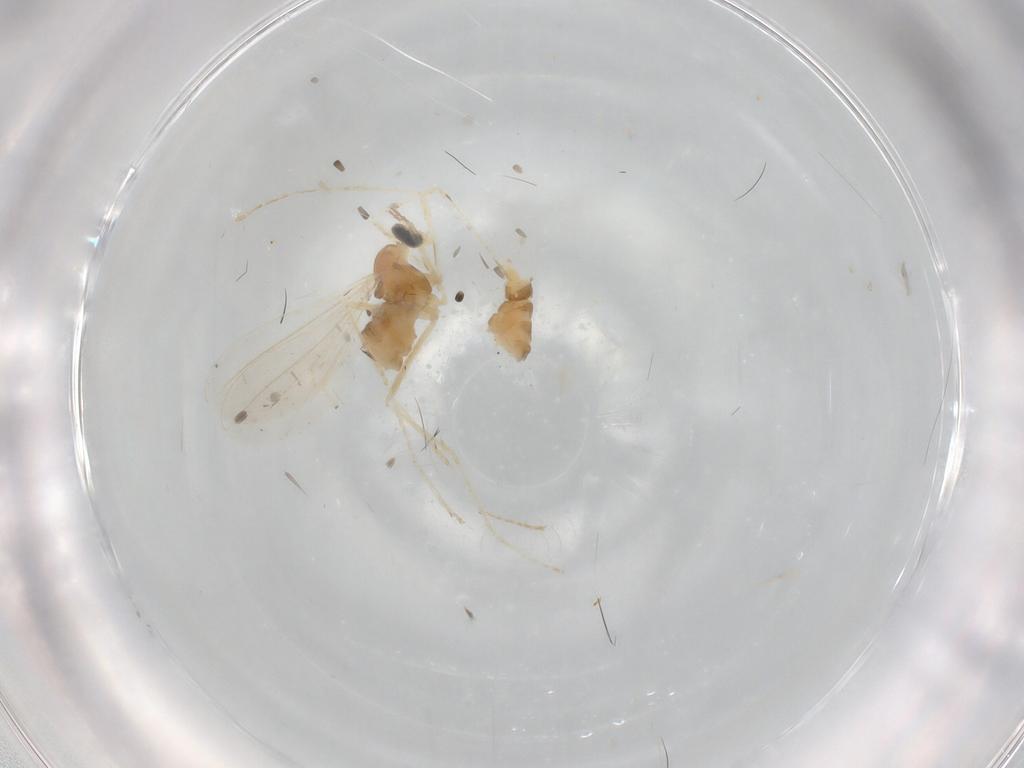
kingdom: Animalia
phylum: Arthropoda
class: Insecta
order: Diptera
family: Cecidomyiidae
